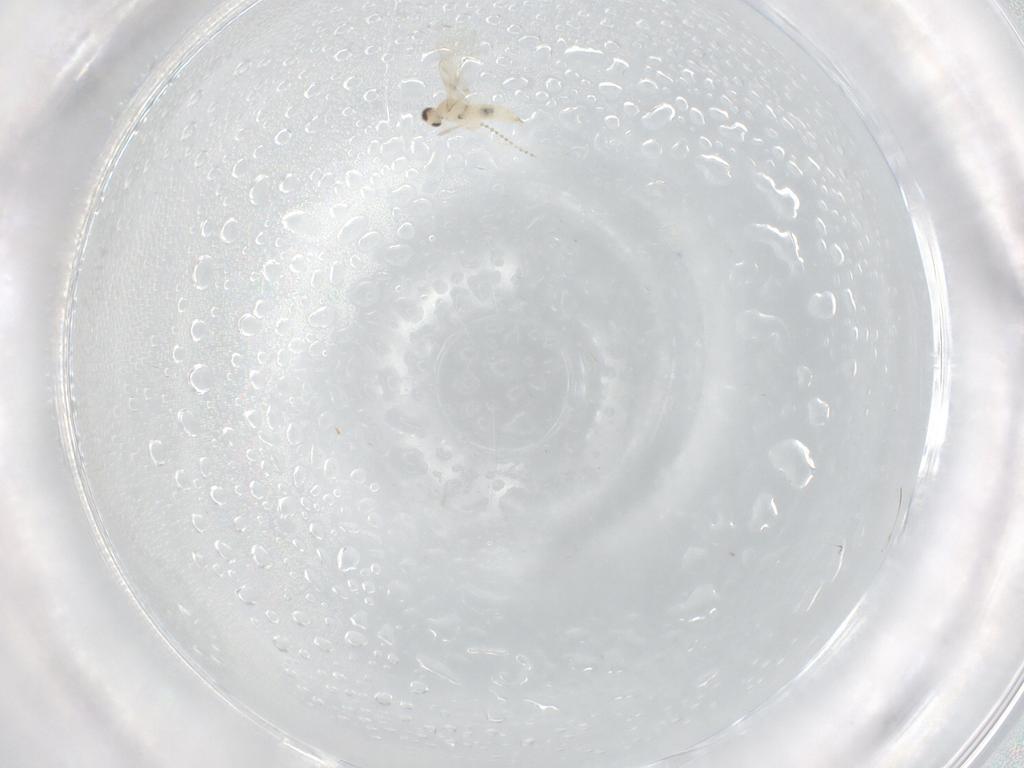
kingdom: Animalia
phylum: Arthropoda
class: Insecta
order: Diptera
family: Cecidomyiidae
